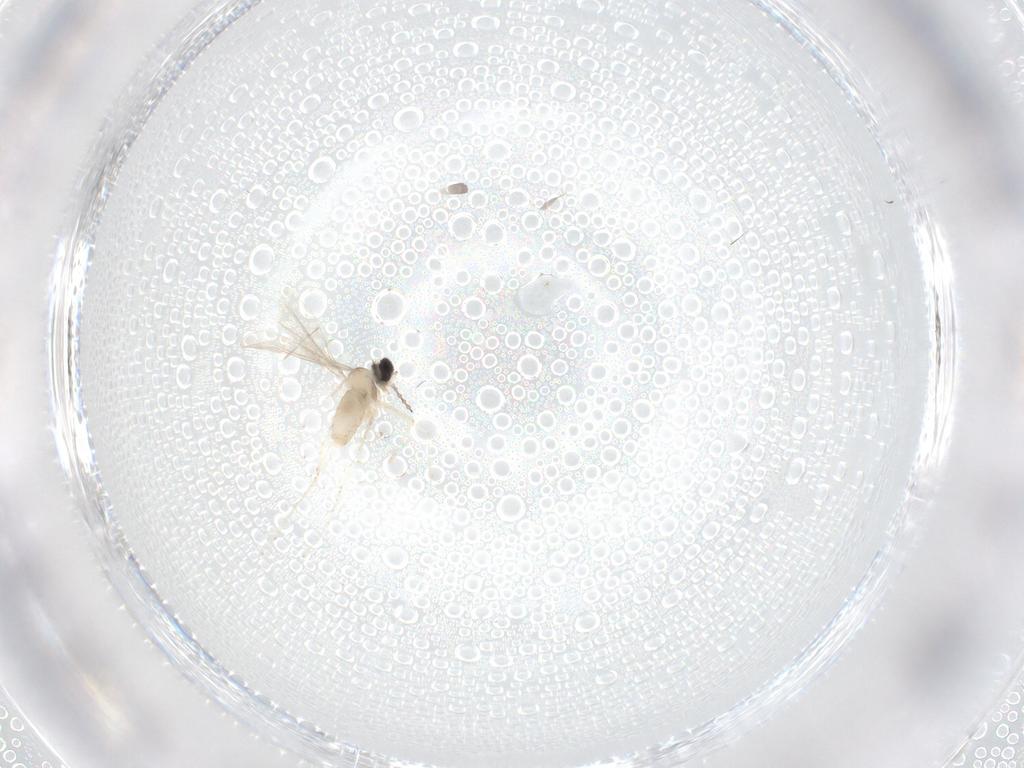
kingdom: Animalia
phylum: Arthropoda
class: Insecta
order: Diptera
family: Cecidomyiidae
